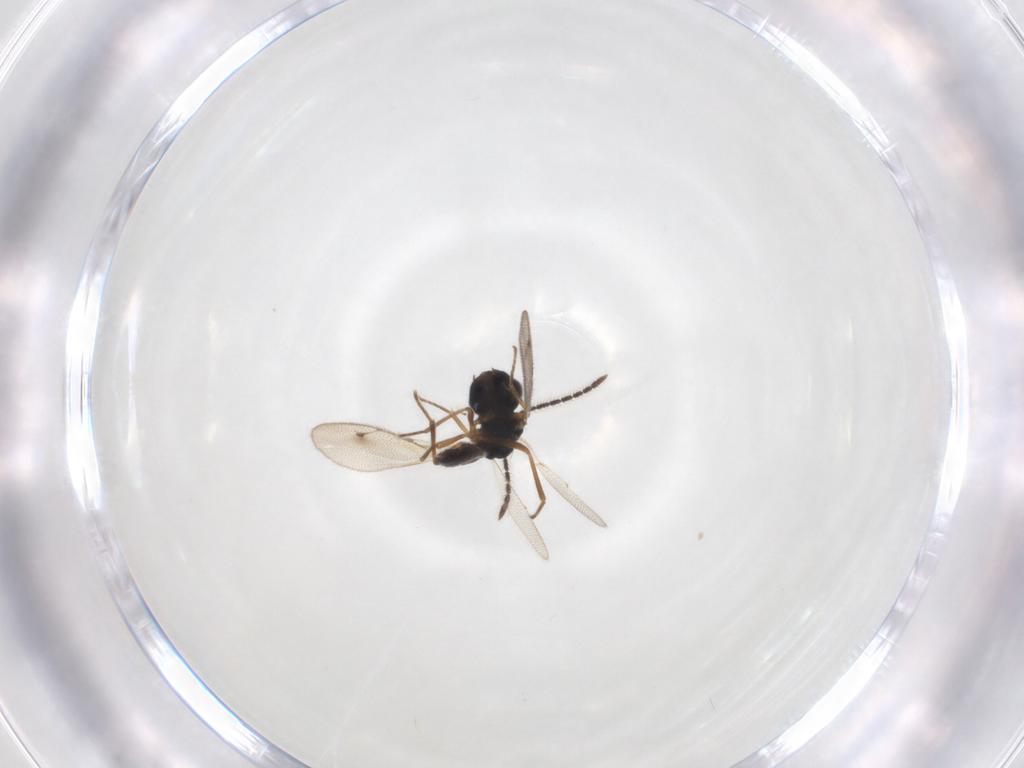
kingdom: Animalia
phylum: Arthropoda
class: Insecta
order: Hymenoptera
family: Pteromalidae
